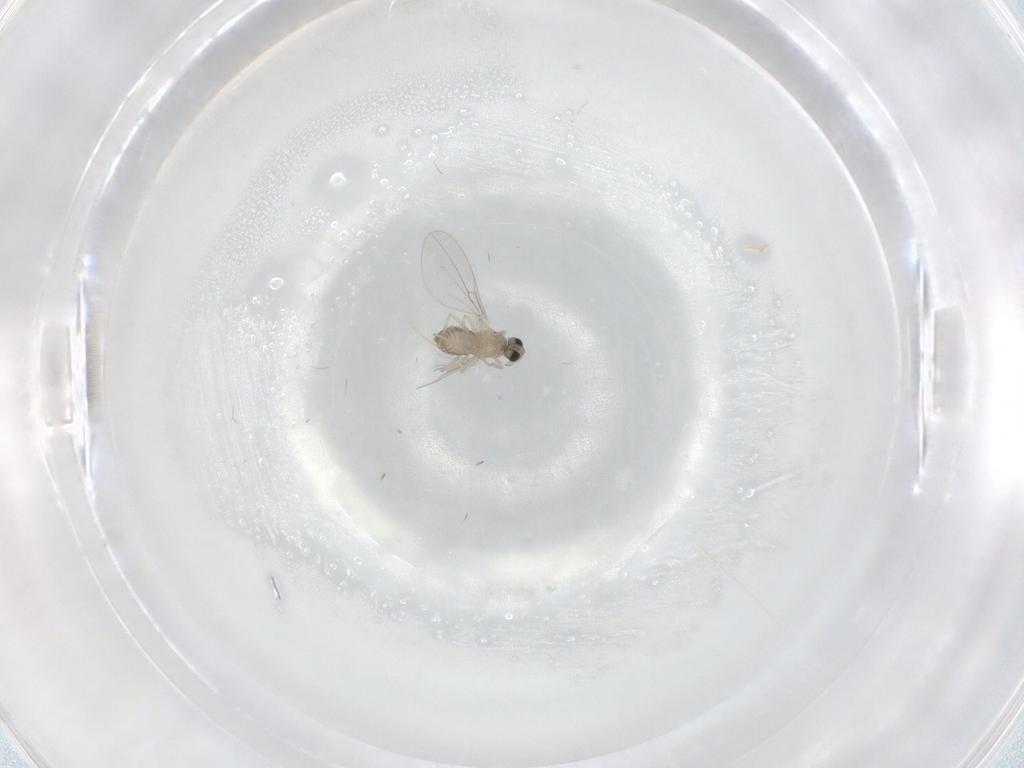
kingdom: Animalia
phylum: Arthropoda
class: Insecta
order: Diptera
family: Cecidomyiidae
